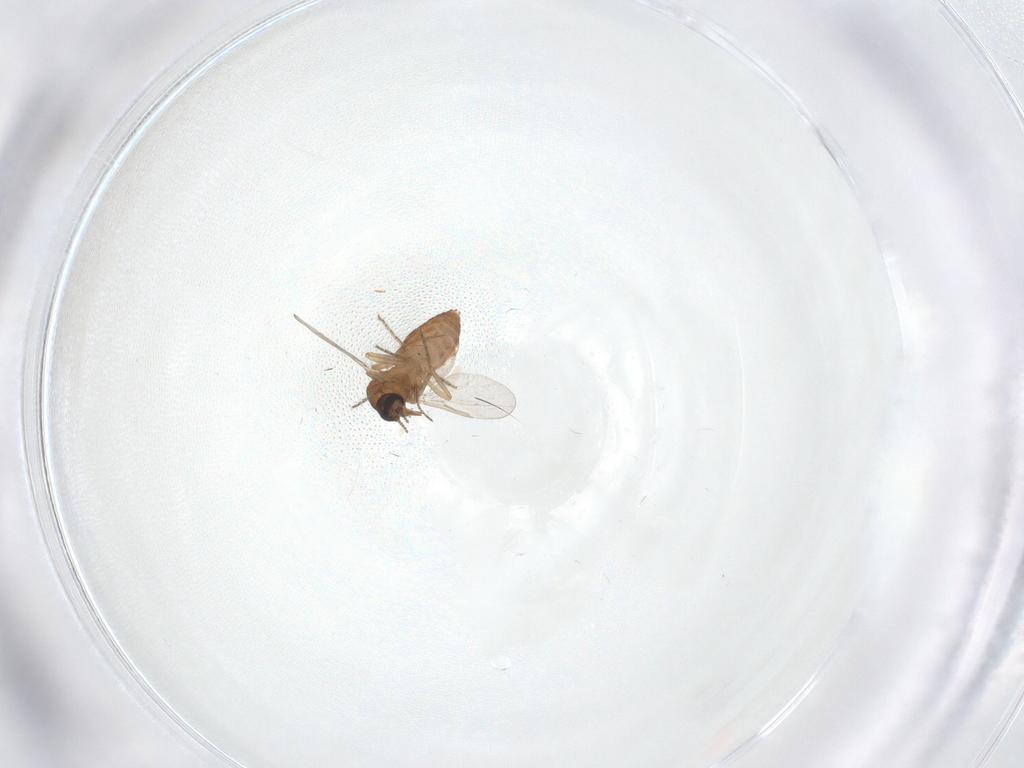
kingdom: Animalia
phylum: Arthropoda
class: Insecta
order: Diptera
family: Ceratopogonidae
